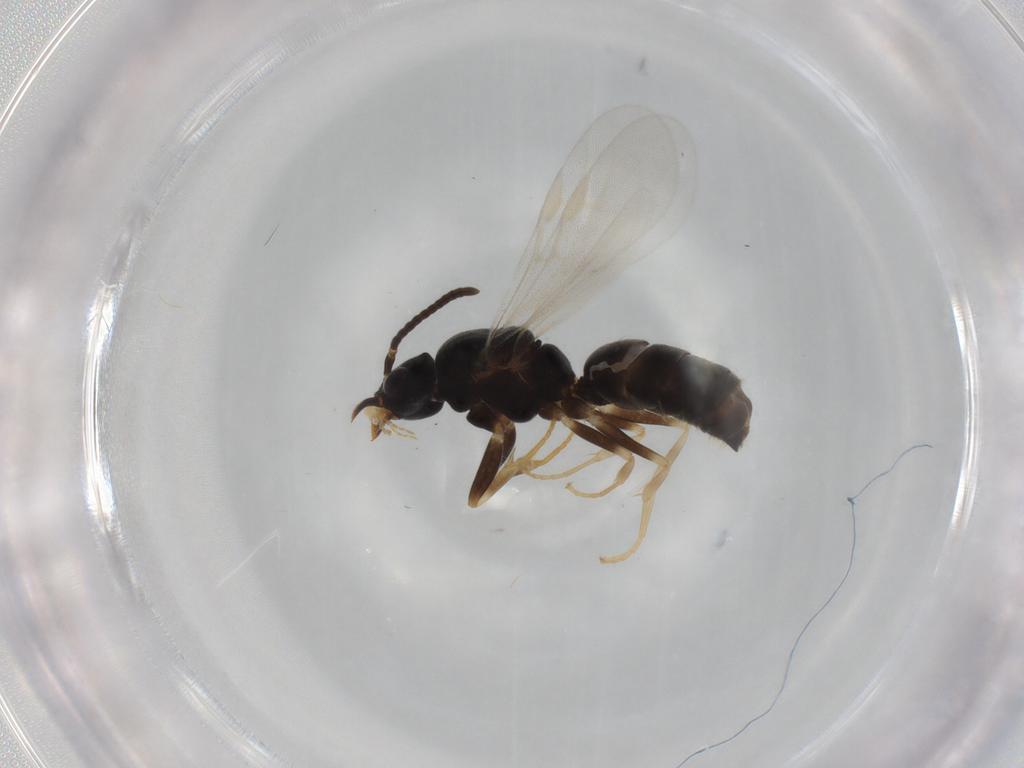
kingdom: Animalia
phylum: Arthropoda
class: Insecta
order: Hymenoptera
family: Formicidae
